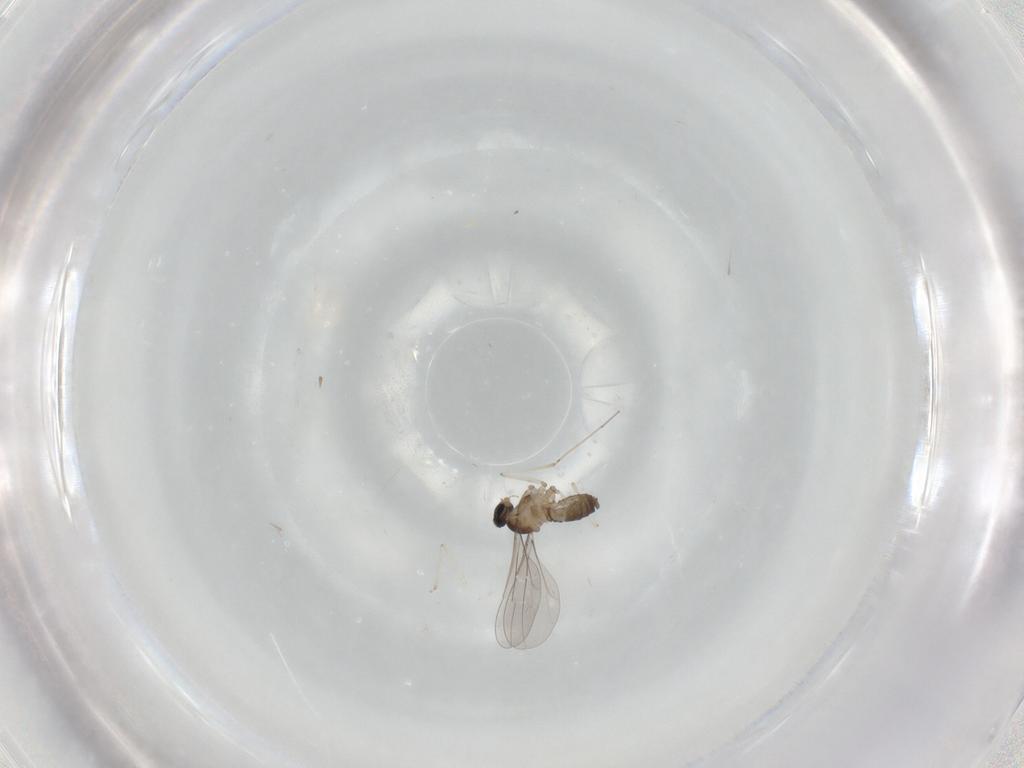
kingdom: Animalia
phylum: Arthropoda
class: Insecta
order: Diptera
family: Cecidomyiidae
